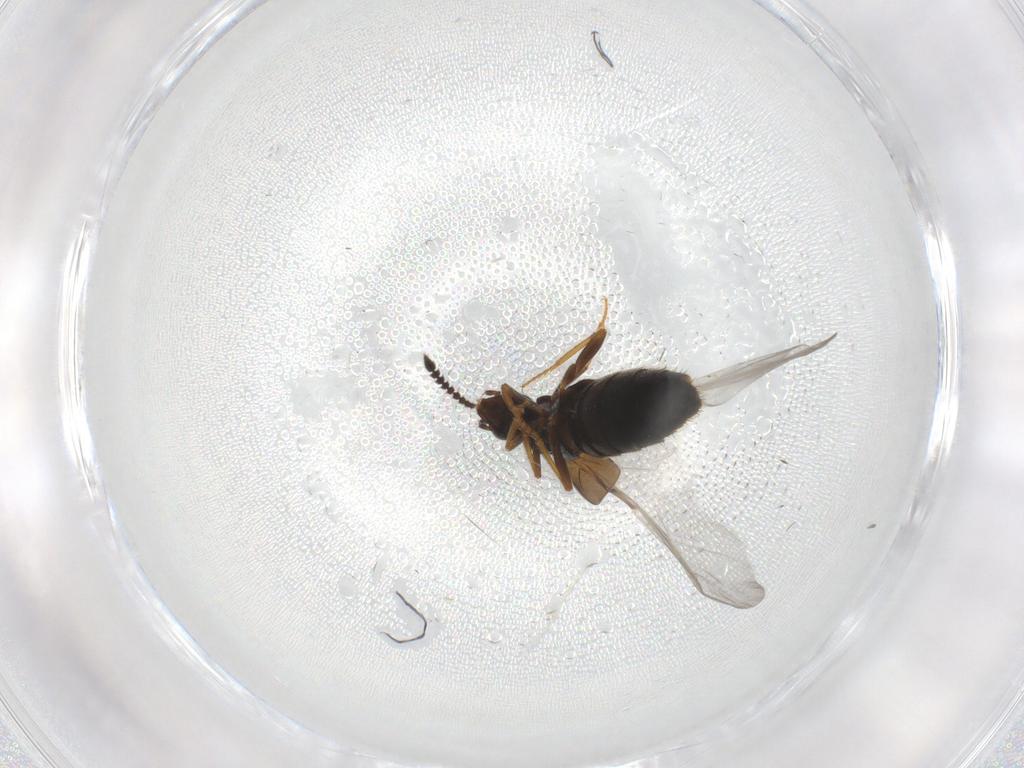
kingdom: Animalia
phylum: Arthropoda
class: Insecta
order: Coleoptera
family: Staphylinidae
